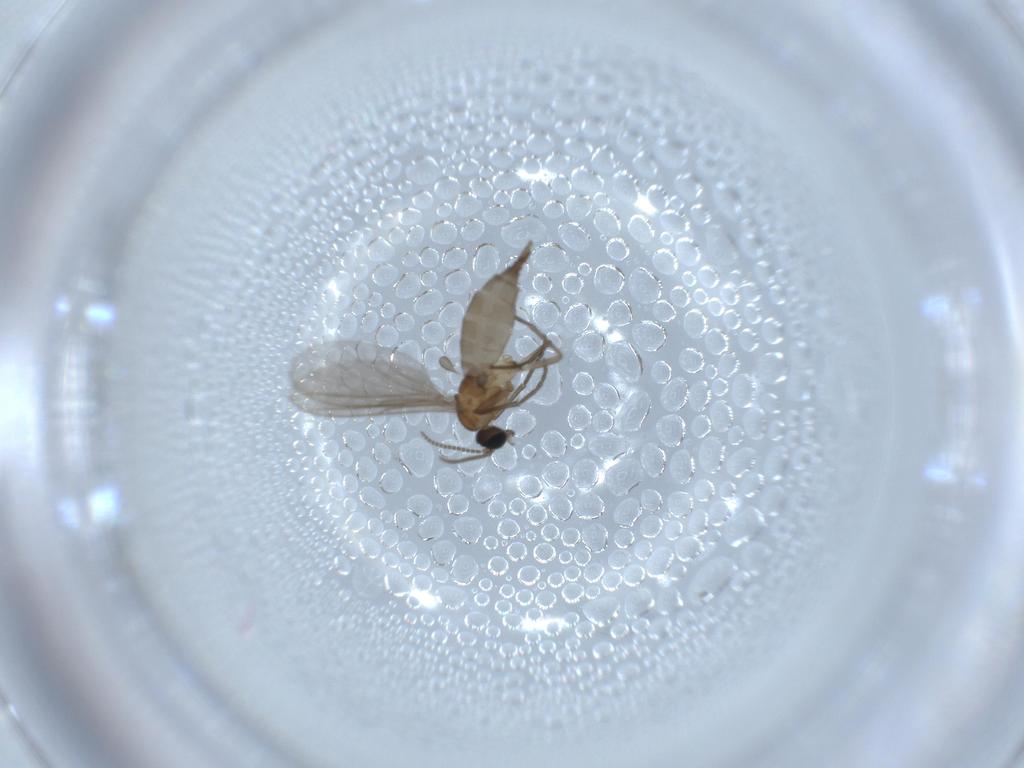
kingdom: Animalia
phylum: Arthropoda
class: Insecta
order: Diptera
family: Sciaridae
